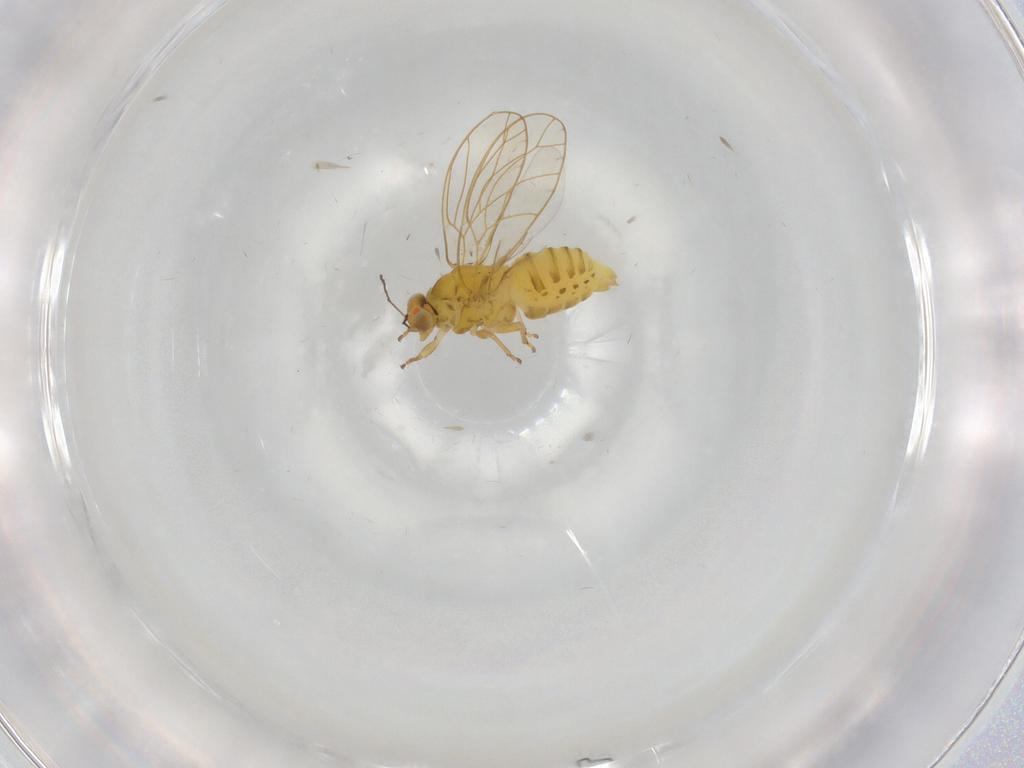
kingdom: Animalia
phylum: Arthropoda
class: Insecta
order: Hemiptera
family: Psylloidea_incertae_sedis
